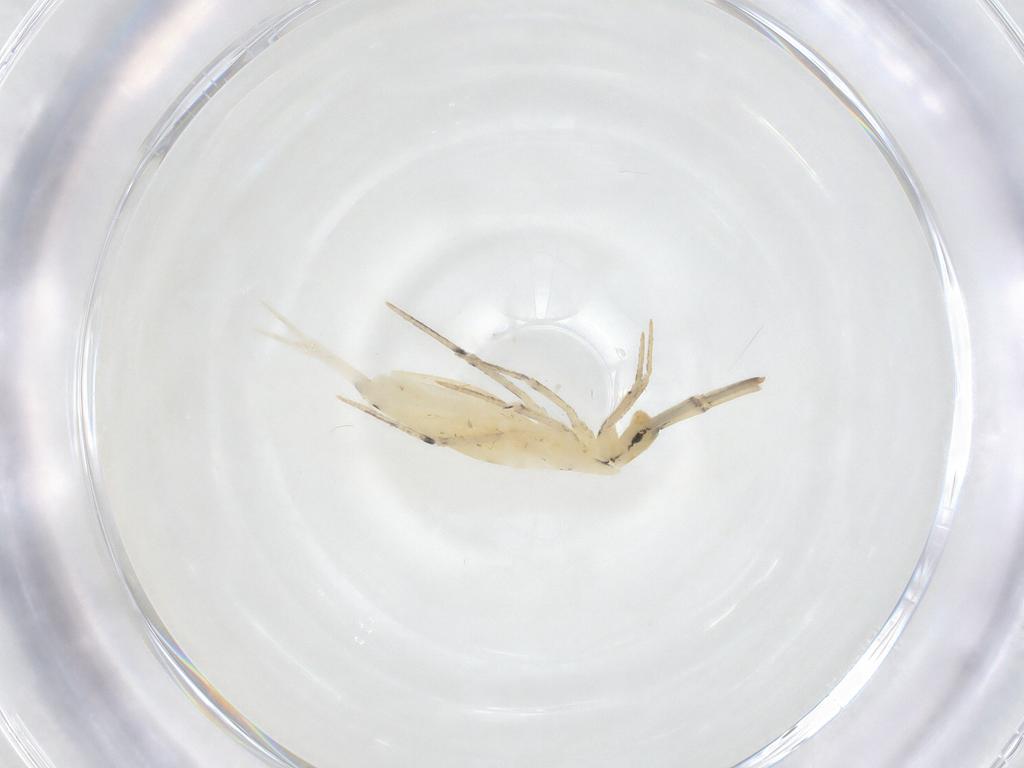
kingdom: Animalia
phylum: Arthropoda
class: Collembola
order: Entomobryomorpha
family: Entomobryidae
